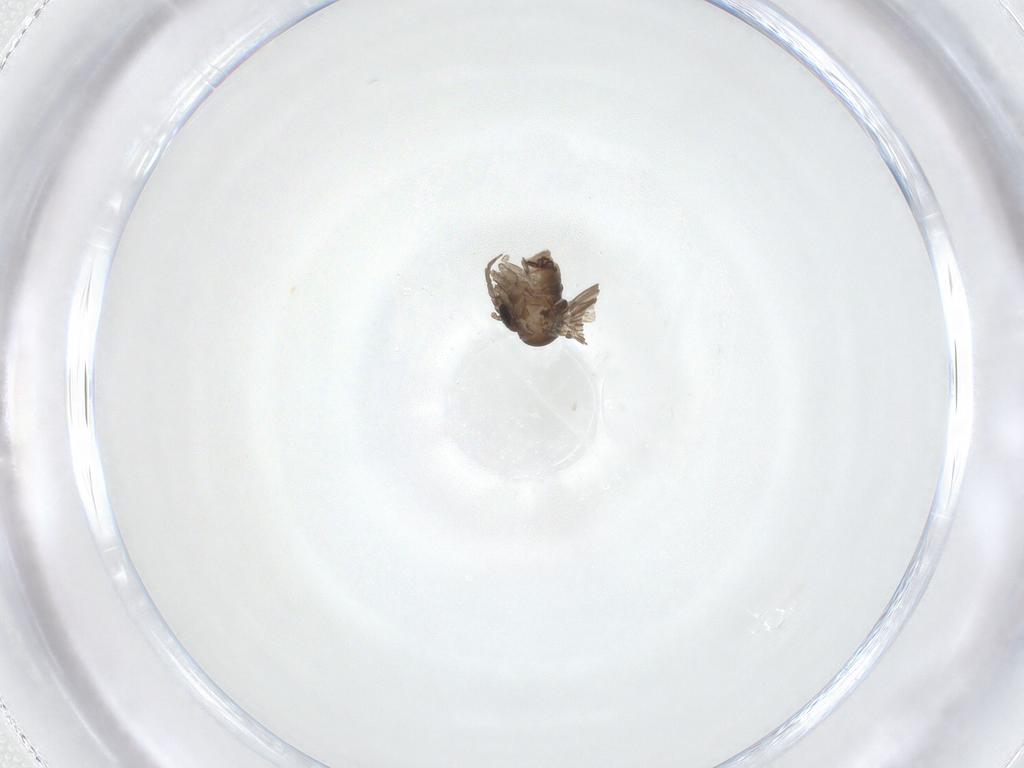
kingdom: Animalia
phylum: Arthropoda
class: Insecta
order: Diptera
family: Psychodidae
